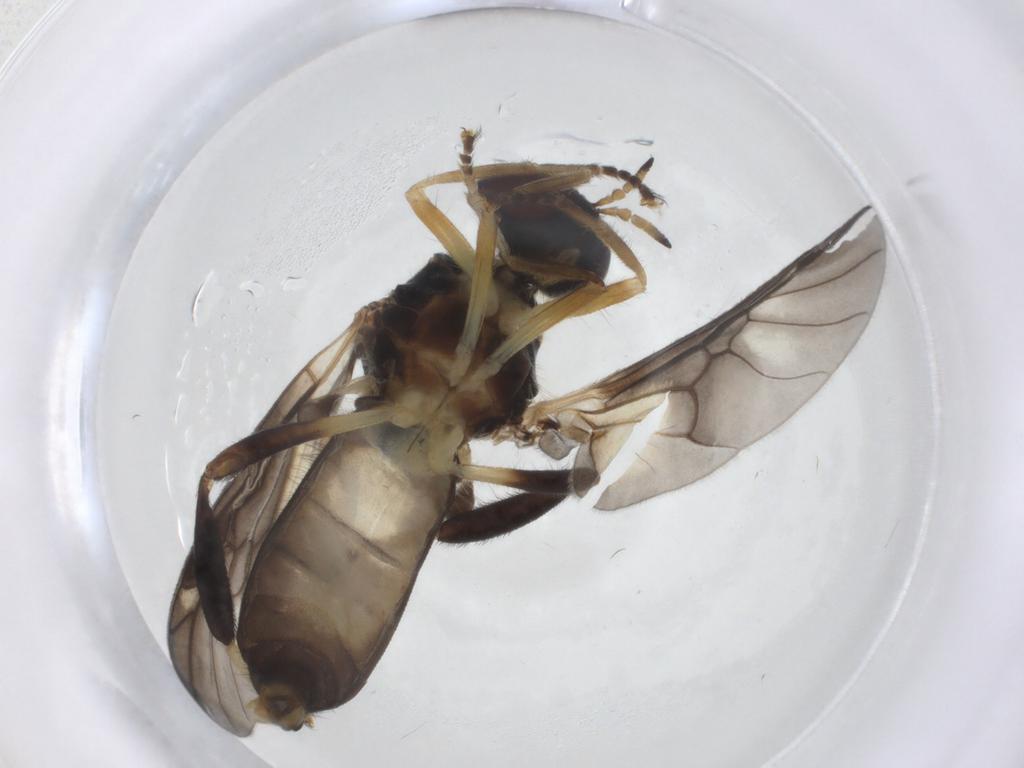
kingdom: Animalia
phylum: Arthropoda
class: Insecta
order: Diptera
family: Stratiomyidae
